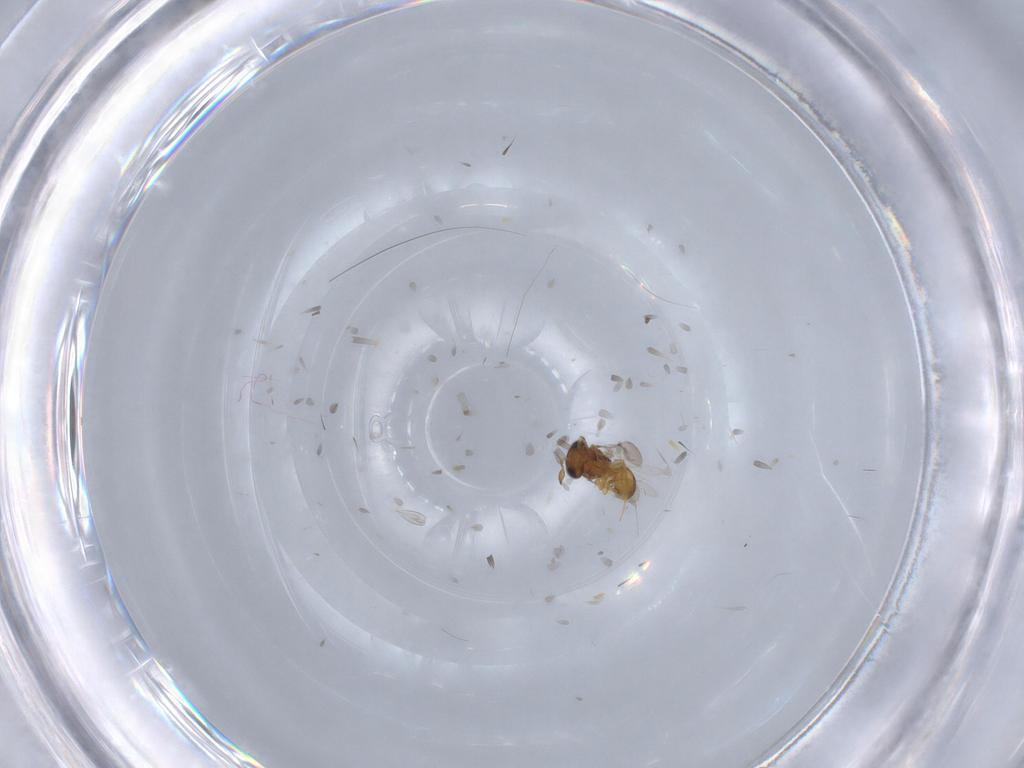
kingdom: Animalia
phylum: Arthropoda
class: Insecta
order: Hymenoptera
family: Scelionidae
